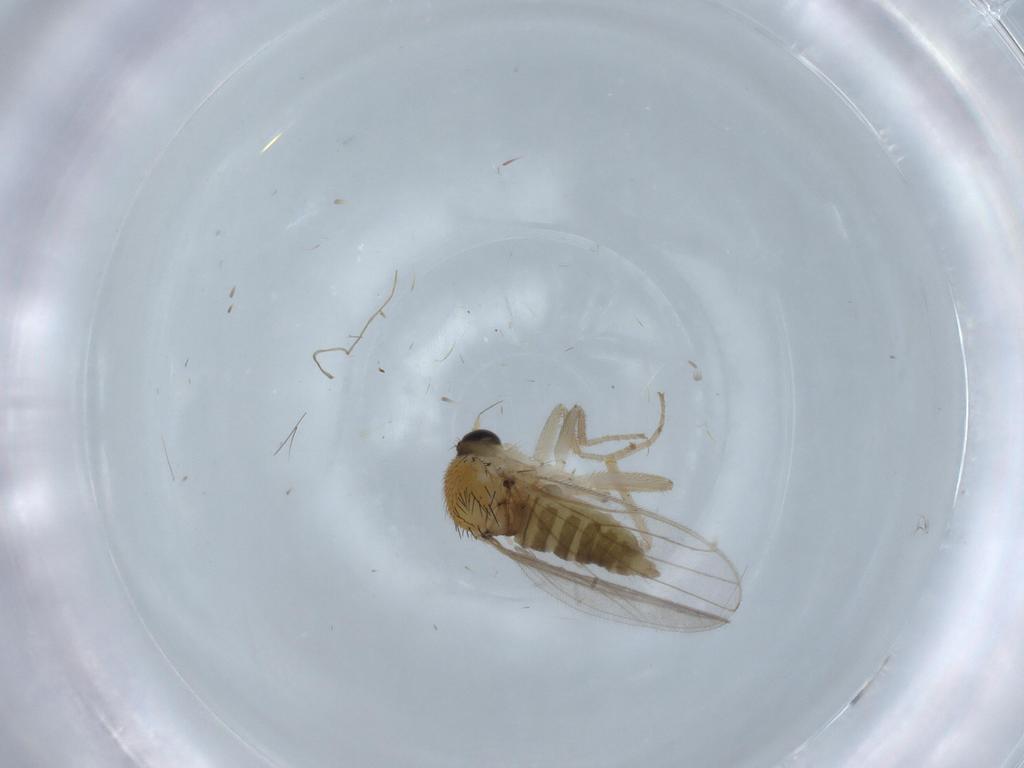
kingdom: Animalia
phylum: Arthropoda
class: Insecta
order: Diptera
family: Hybotidae
